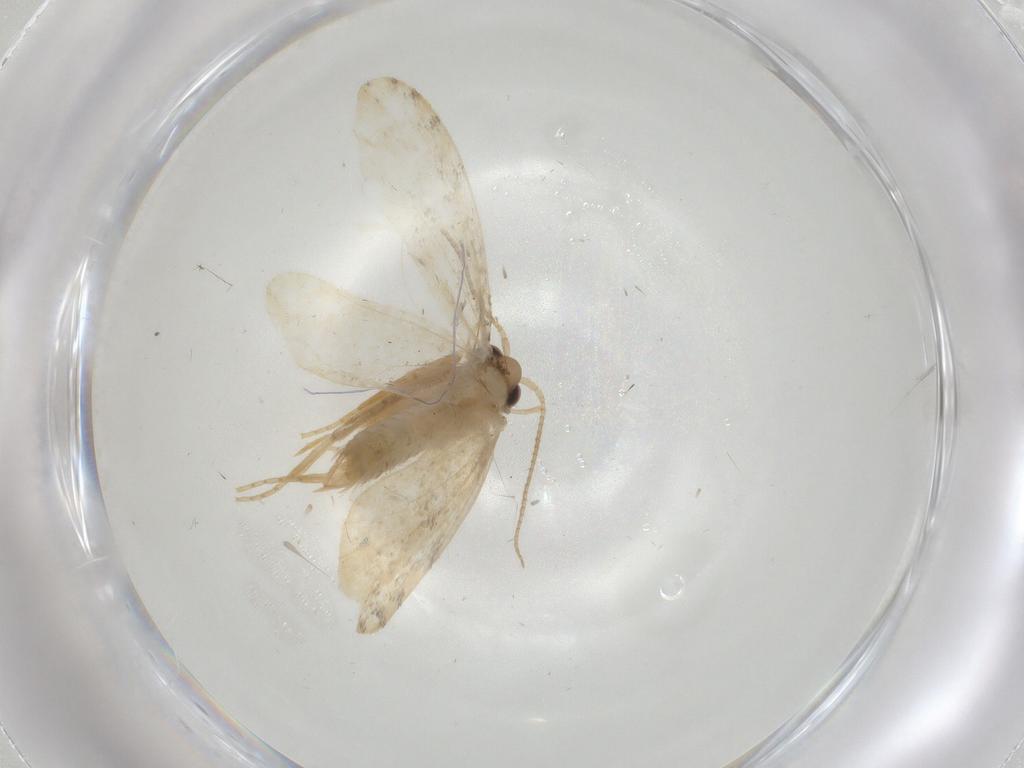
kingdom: Animalia
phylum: Arthropoda
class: Insecta
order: Lepidoptera
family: Psychidae
